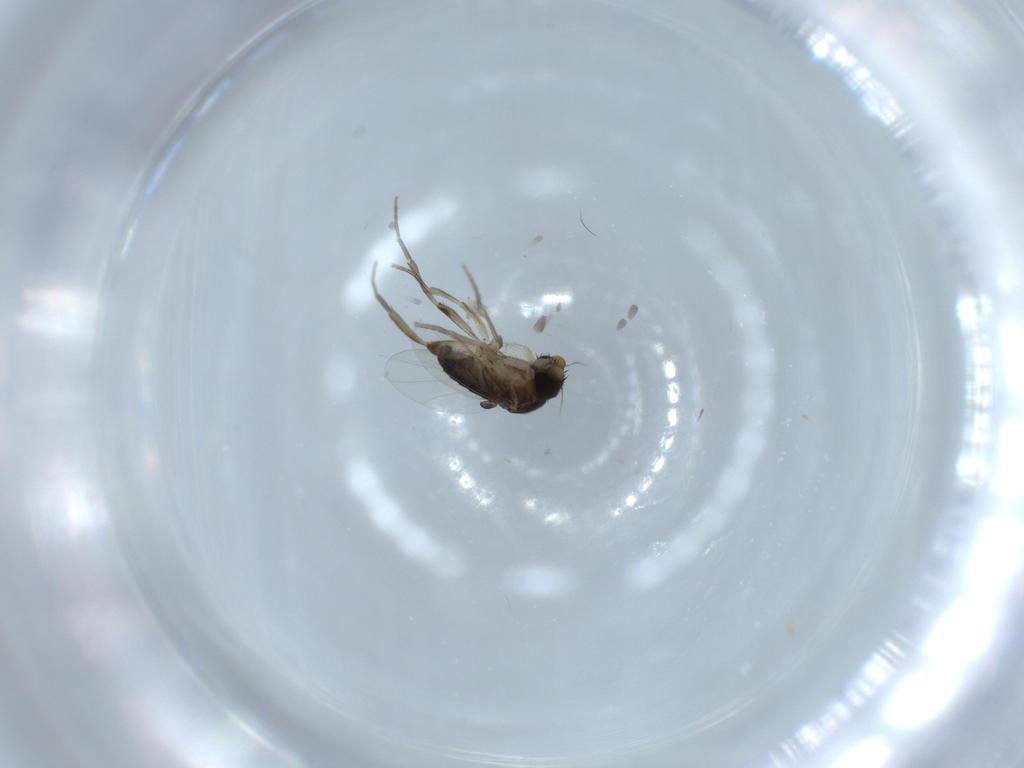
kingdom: Animalia
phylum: Arthropoda
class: Insecta
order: Diptera
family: Phoridae
